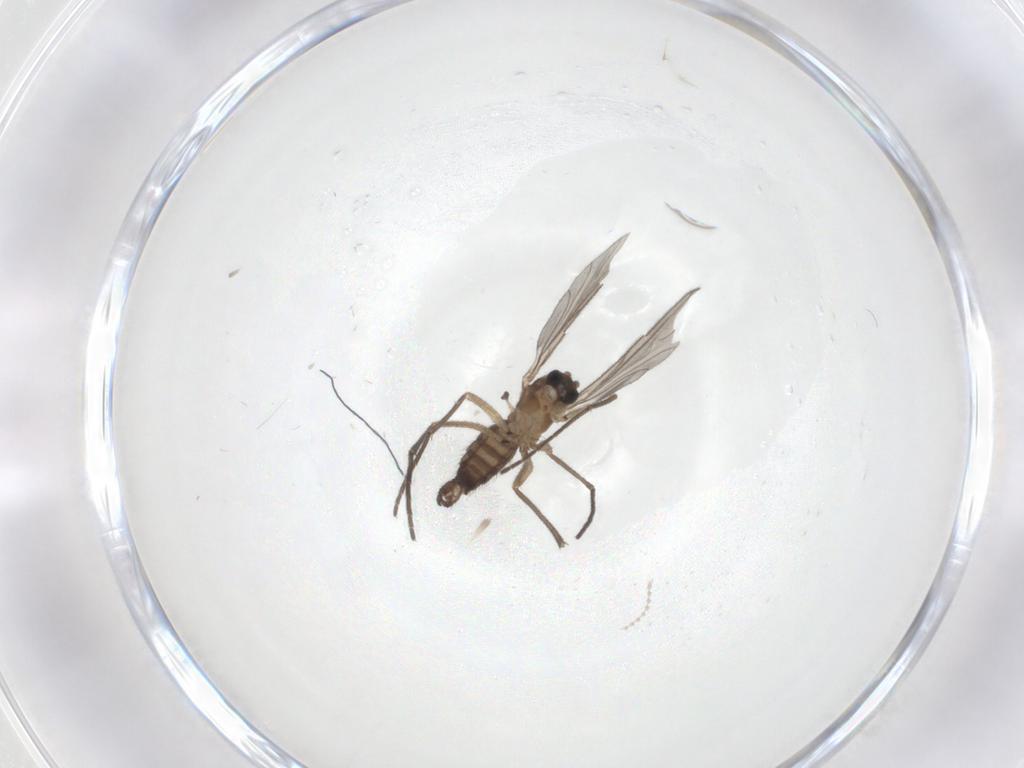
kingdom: Animalia
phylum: Arthropoda
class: Insecta
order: Diptera
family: Sciaridae
